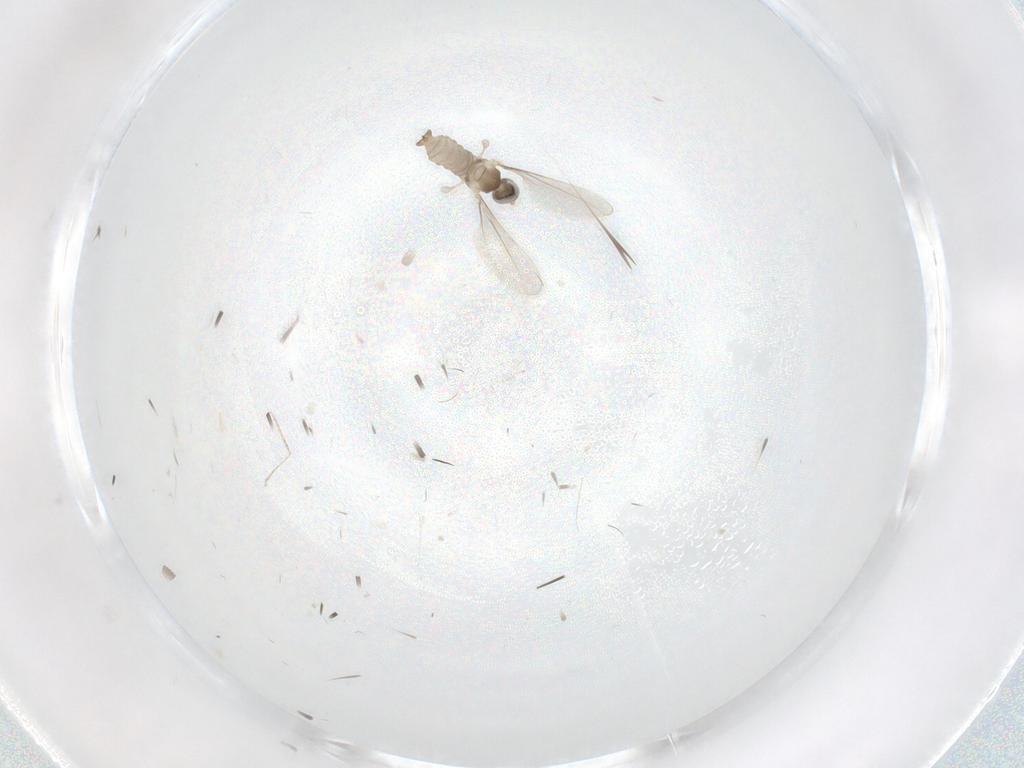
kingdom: Animalia
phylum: Arthropoda
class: Insecta
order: Diptera
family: Cecidomyiidae
